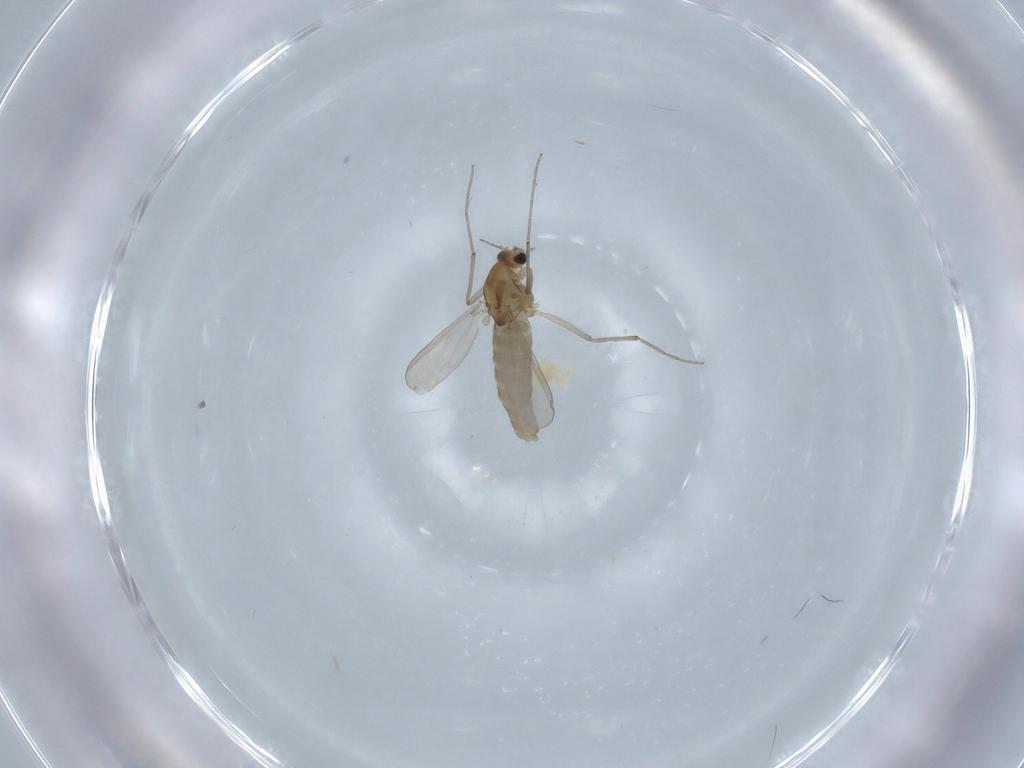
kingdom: Animalia
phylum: Arthropoda
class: Insecta
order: Diptera
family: Chironomidae
